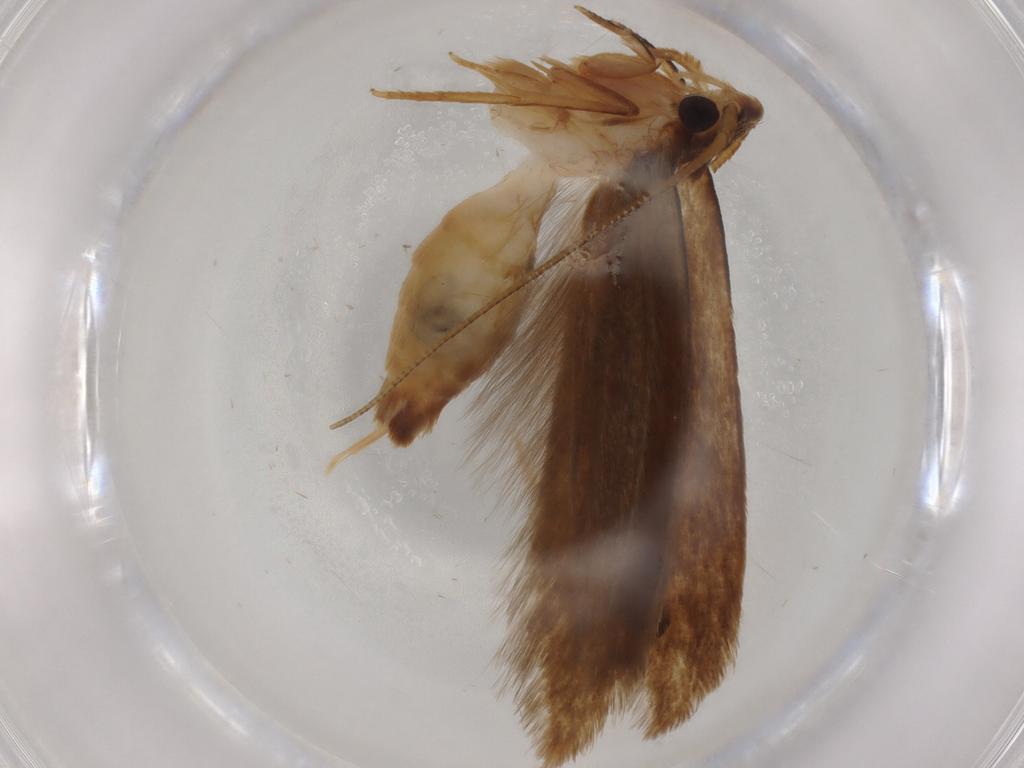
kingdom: Animalia
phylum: Arthropoda
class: Insecta
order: Lepidoptera
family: Tineidae
